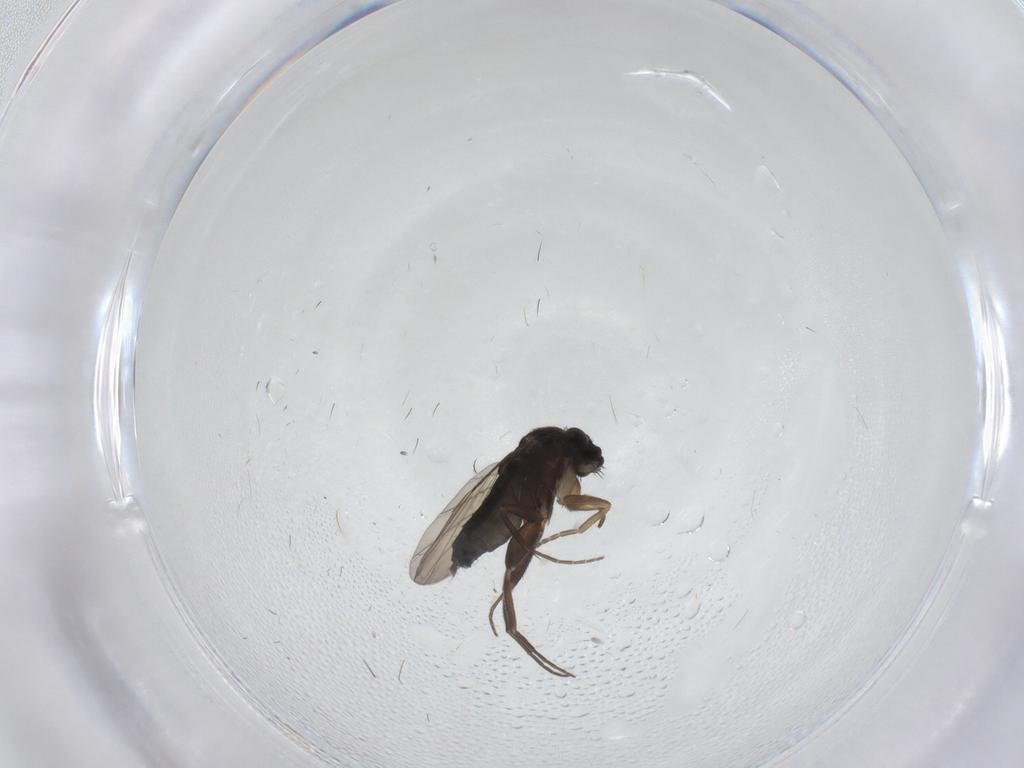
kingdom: Animalia
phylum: Arthropoda
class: Insecta
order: Diptera
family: Phoridae
